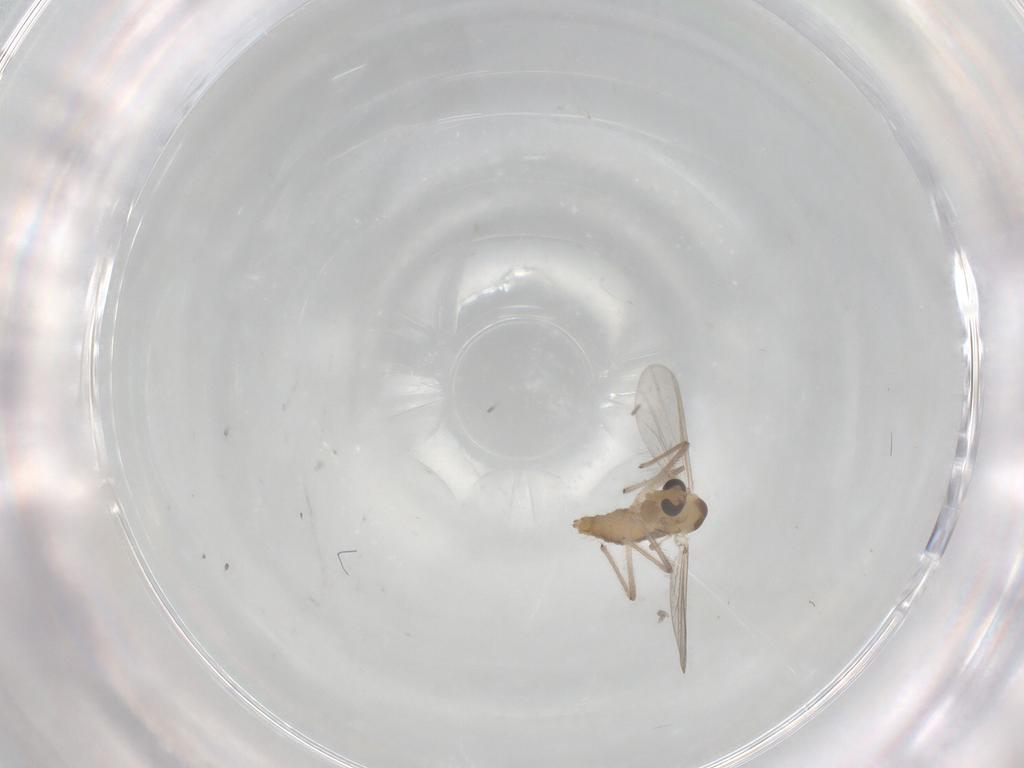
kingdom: Animalia
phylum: Arthropoda
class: Insecta
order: Diptera
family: Chironomidae
